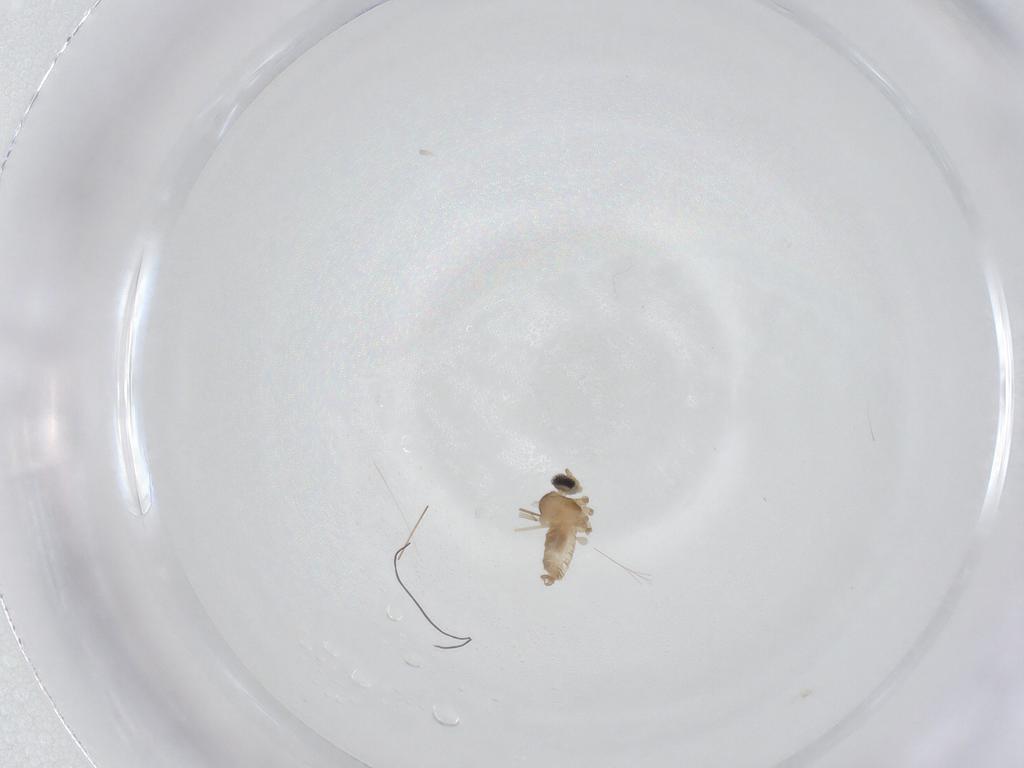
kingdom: Animalia
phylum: Arthropoda
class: Insecta
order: Diptera
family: Cecidomyiidae
